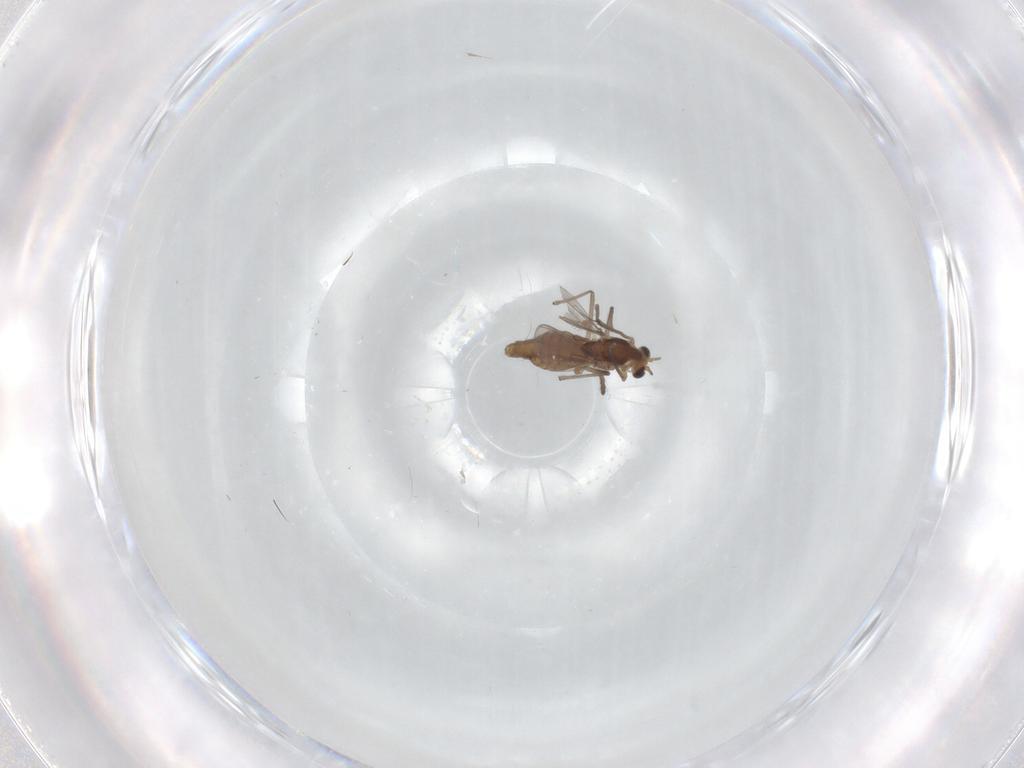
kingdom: Animalia
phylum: Arthropoda
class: Insecta
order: Diptera
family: Chironomidae
